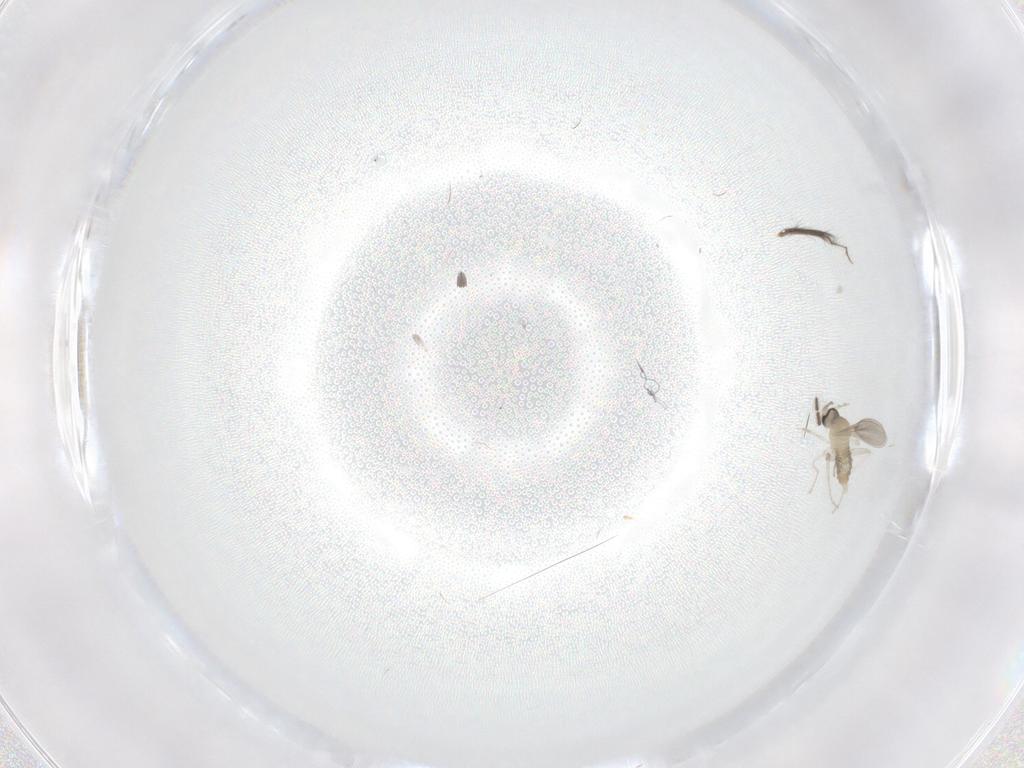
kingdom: Animalia
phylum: Arthropoda
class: Insecta
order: Diptera
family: Cecidomyiidae
